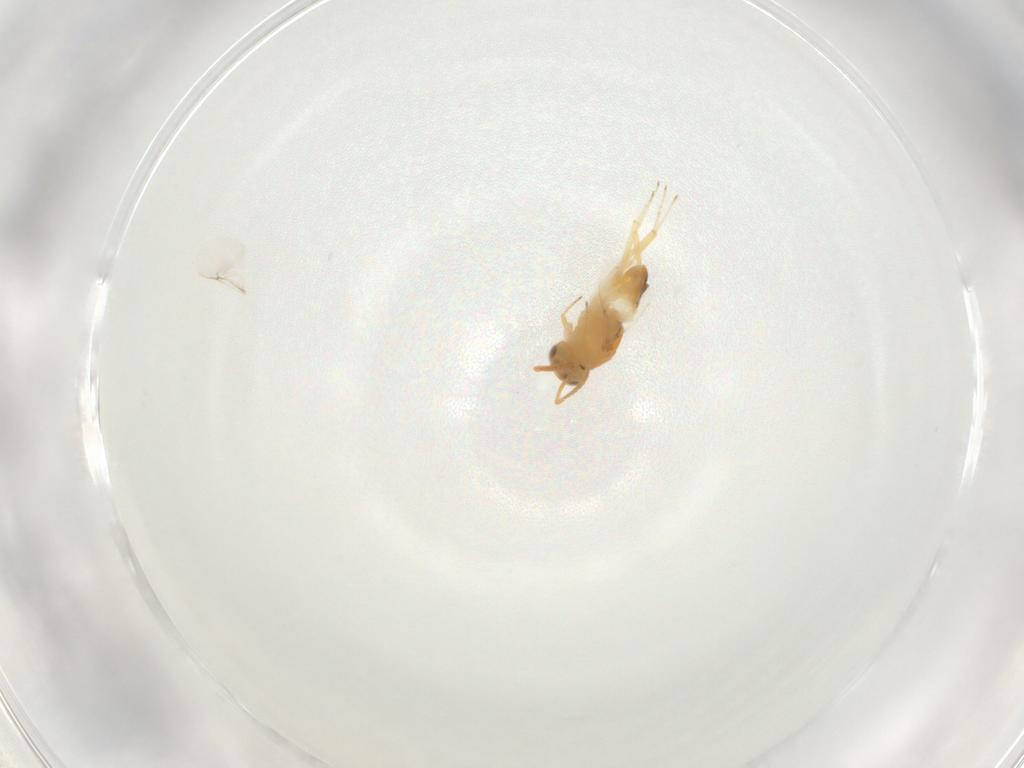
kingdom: Animalia
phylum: Arthropoda
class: Insecta
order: Hymenoptera
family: Encyrtidae
